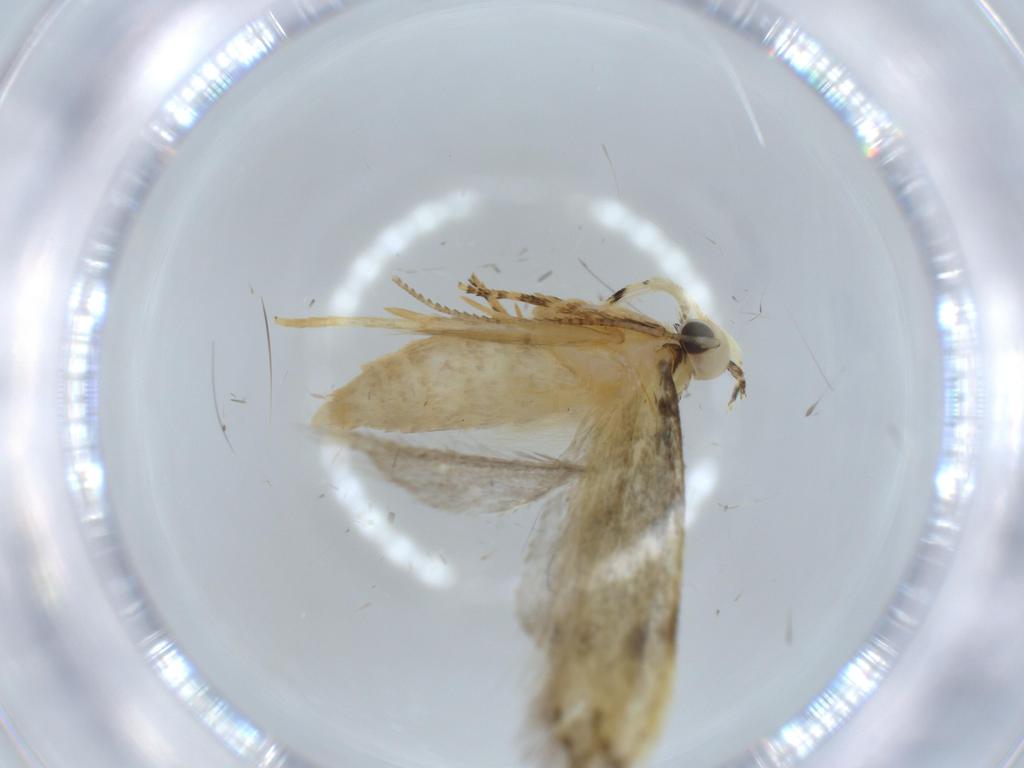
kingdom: Animalia
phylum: Arthropoda
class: Insecta
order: Lepidoptera
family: Autostichidae
